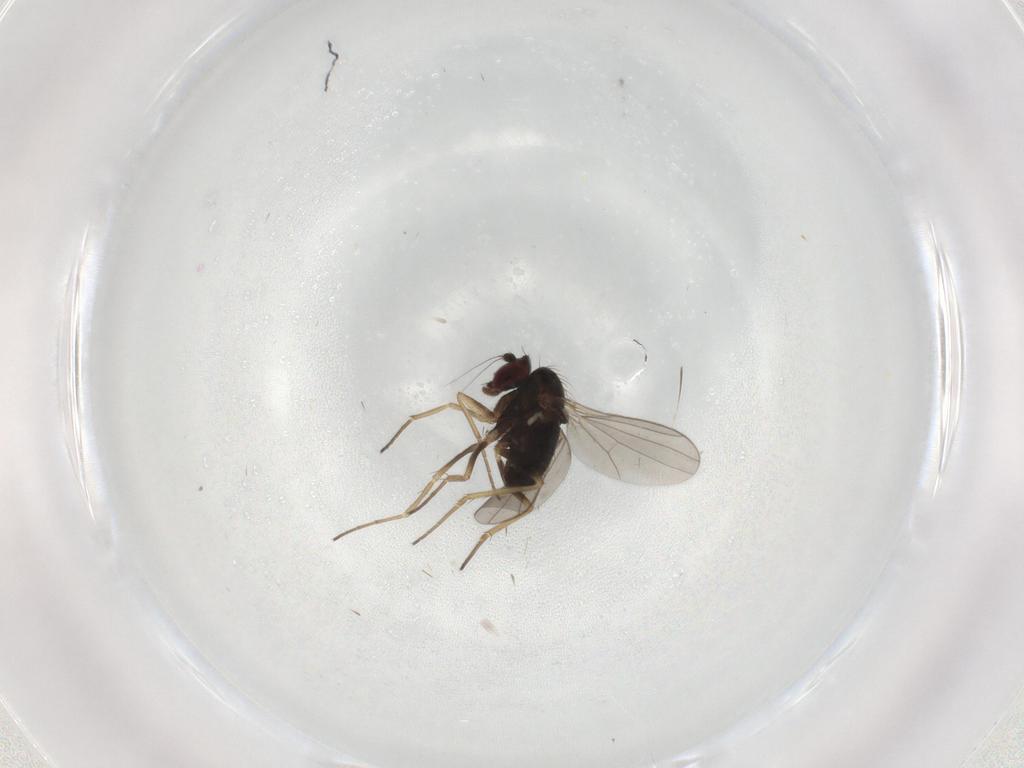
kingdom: Animalia
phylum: Arthropoda
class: Insecta
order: Diptera
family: Dolichopodidae
